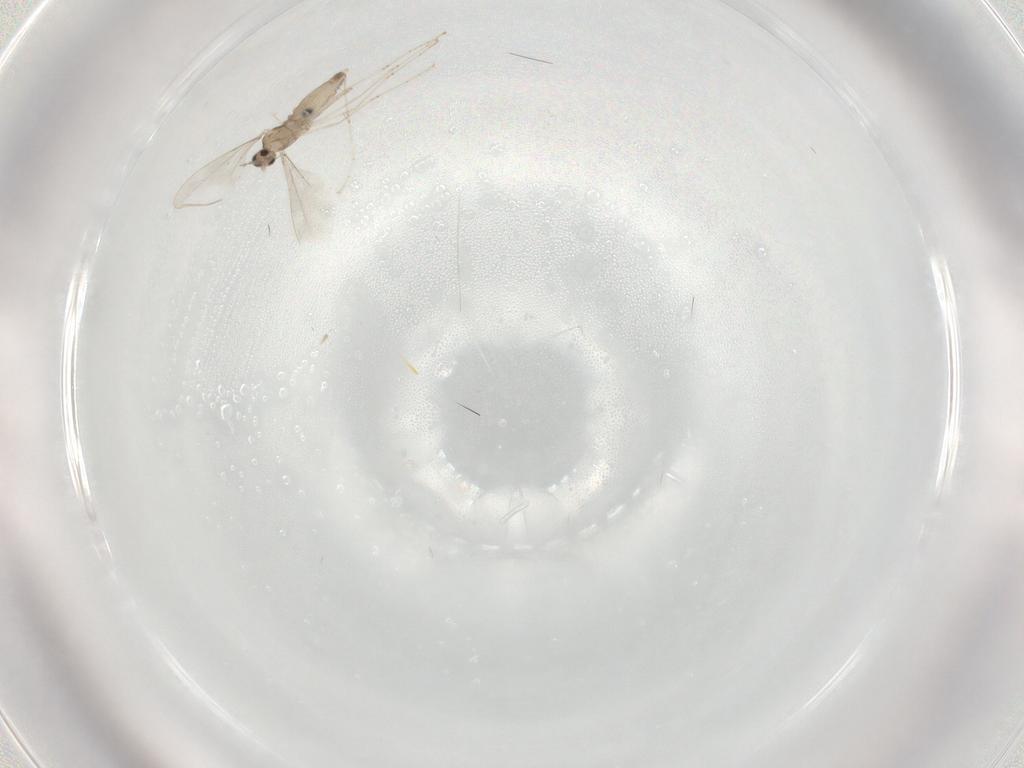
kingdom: Animalia
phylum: Arthropoda
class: Insecta
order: Diptera
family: Cecidomyiidae
